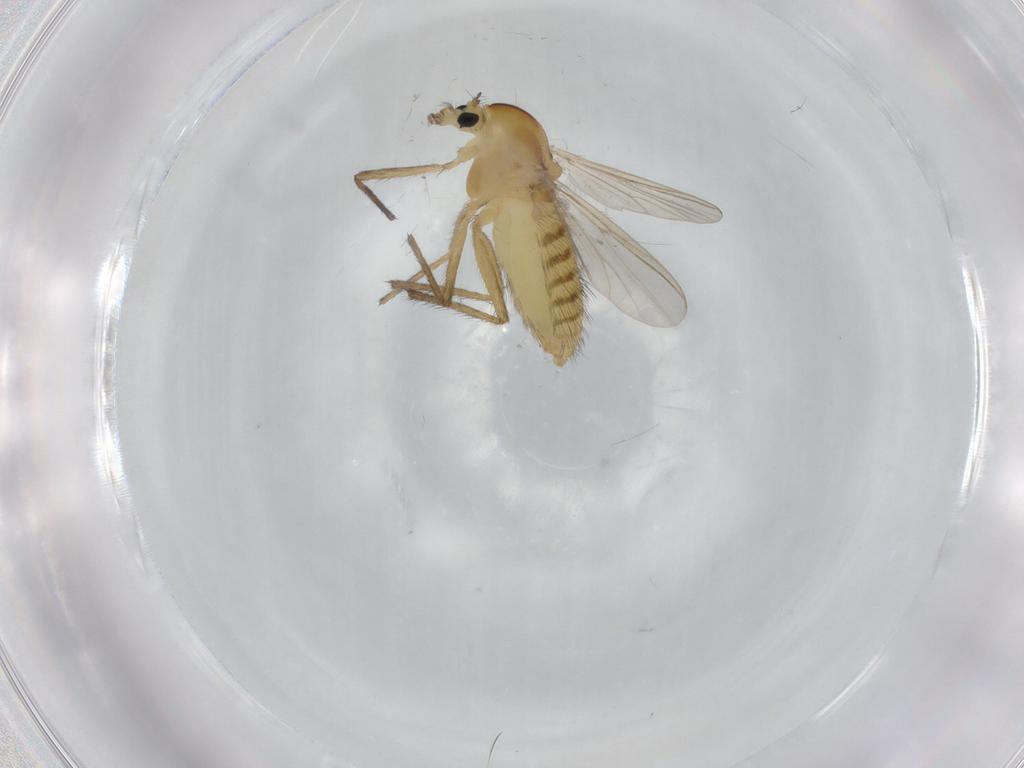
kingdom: Animalia
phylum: Arthropoda
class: Insecta
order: Diptera
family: Chironomidae
